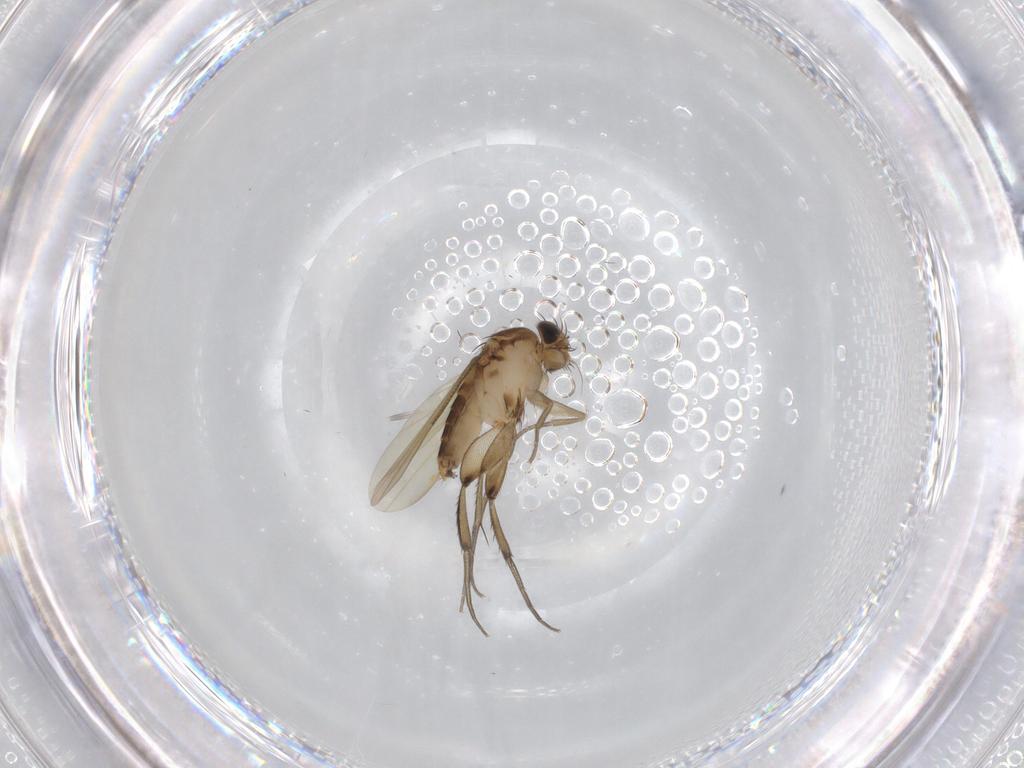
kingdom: Animalia
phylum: Arthropoda
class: Insecta
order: Diptera
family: Phoridae
